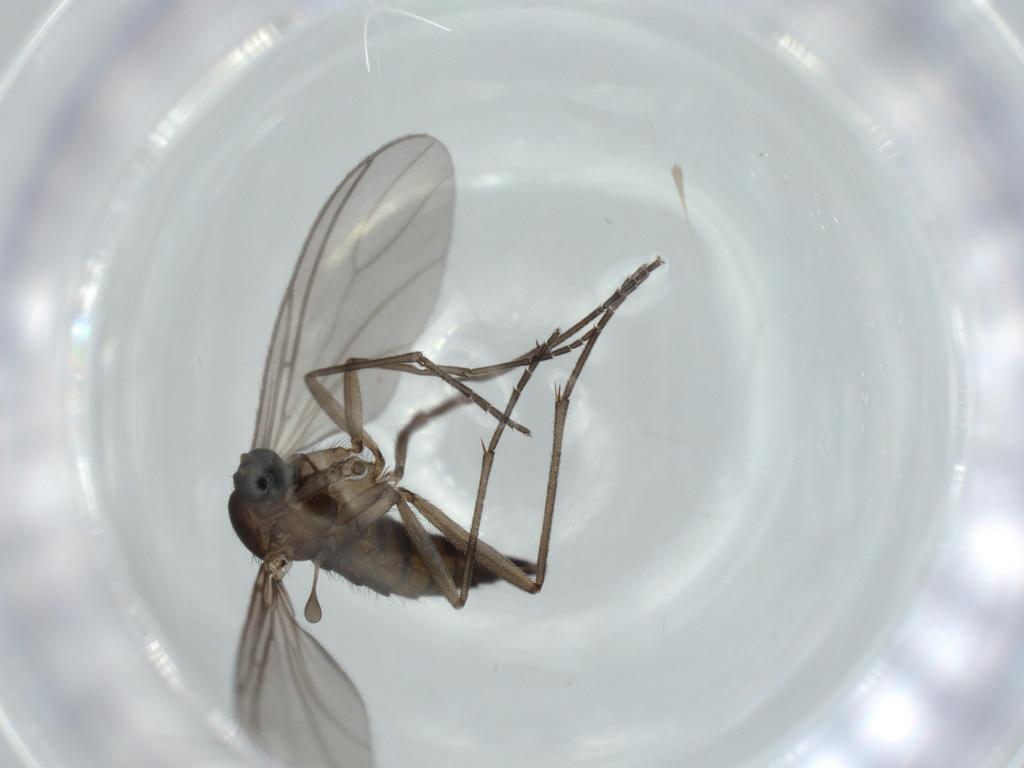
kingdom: Animalia
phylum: Arthropoda
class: Insecta
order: Diptera
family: Sciaridae
